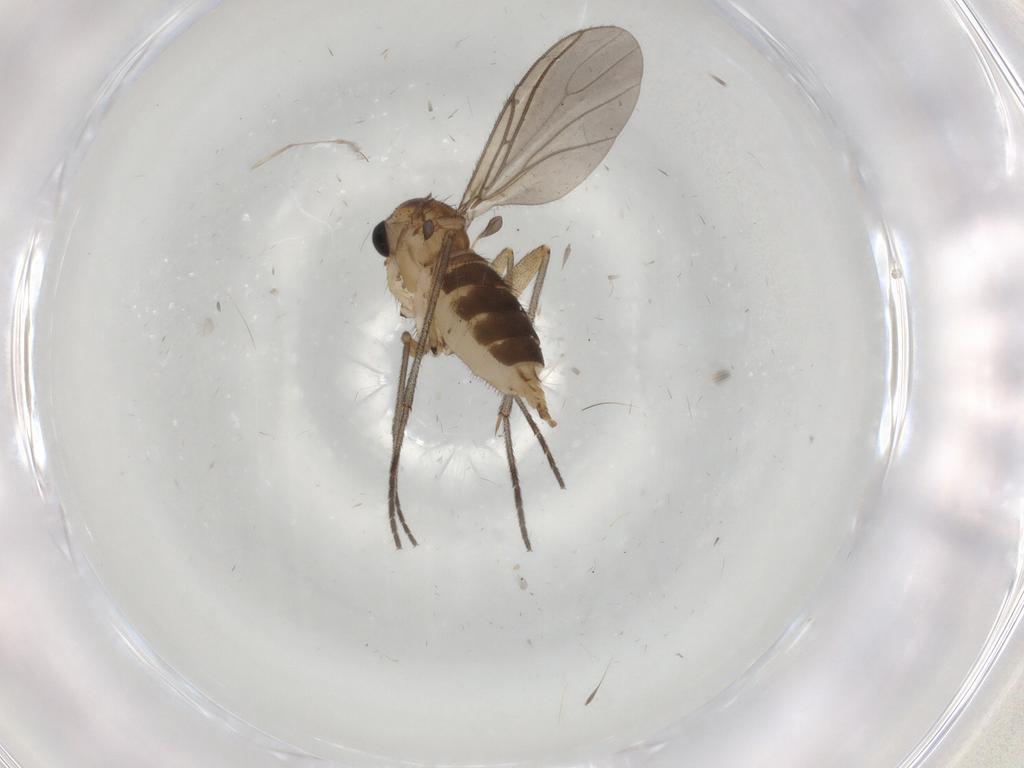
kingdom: Animalia
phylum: Arthropoda
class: Insecta
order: Diptera
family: Sciaridae
